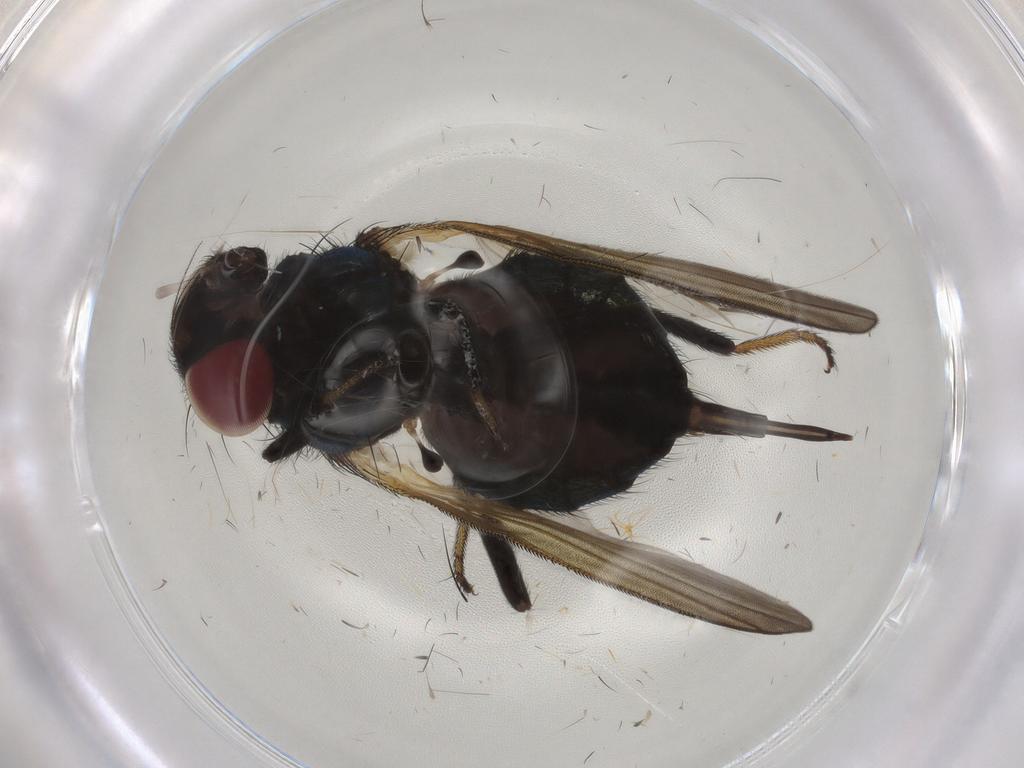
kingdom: Animalia
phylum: Arthropoda
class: Insecta
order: Diptera
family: Lonchaeidae
